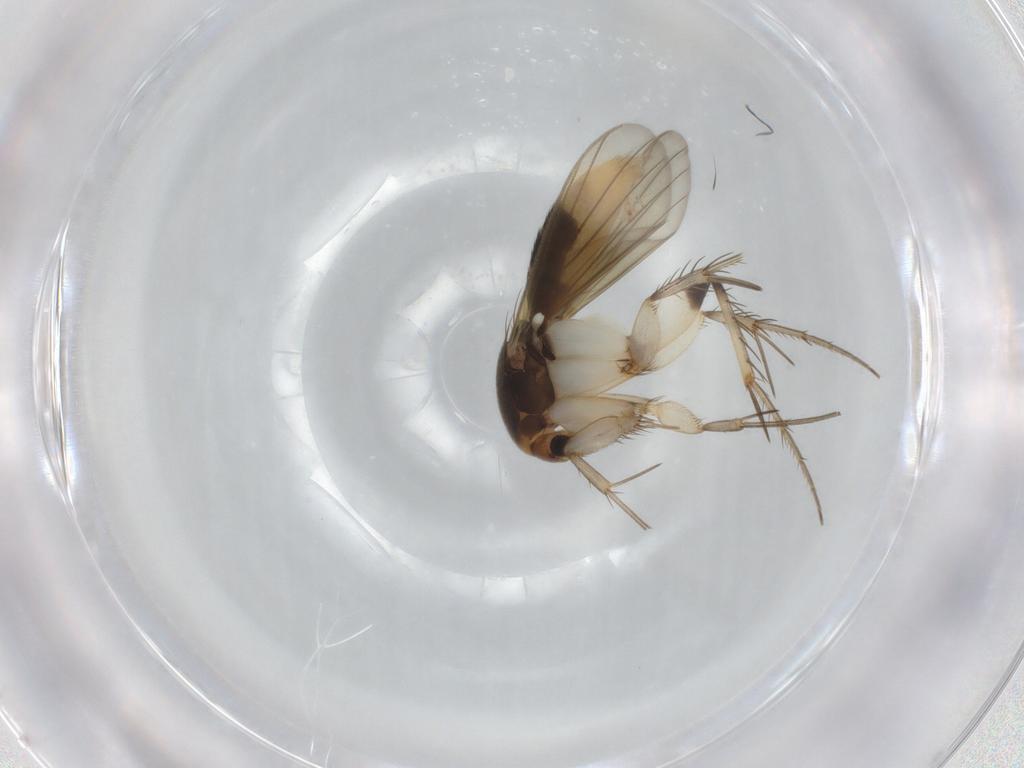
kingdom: Animalia
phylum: Arthropoda
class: Insecta
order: Diptera
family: Mycetophilidae
